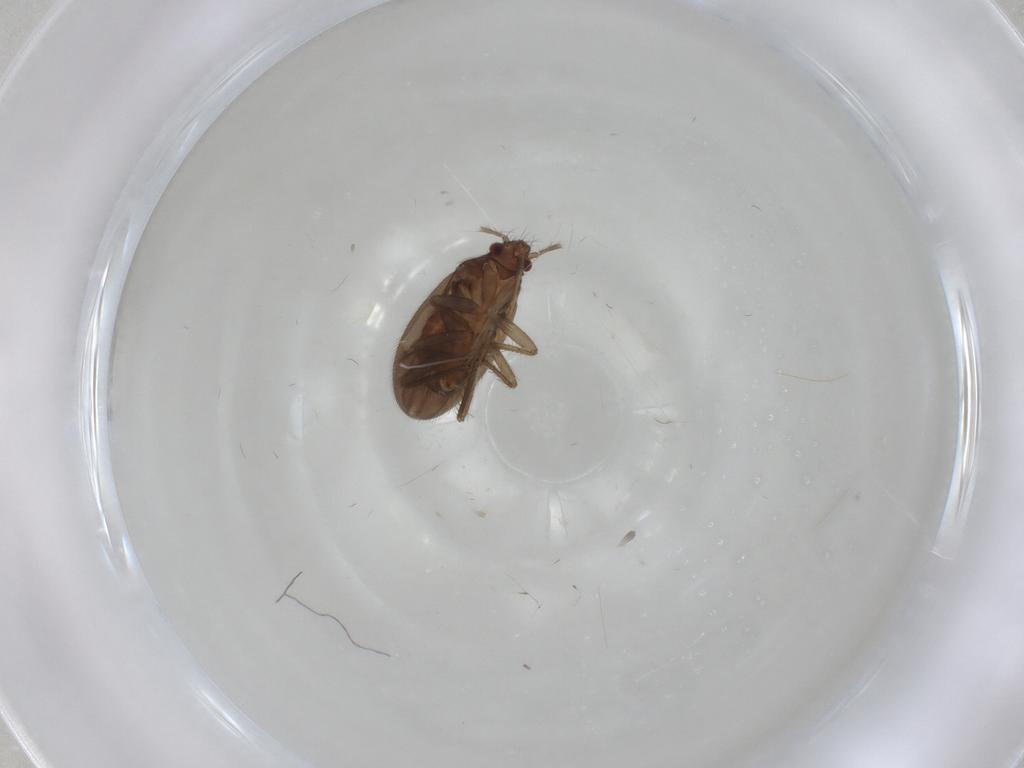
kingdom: Animalia
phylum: Arthropoda
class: Insecta
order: Hemiptera
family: Ceratocombidae
